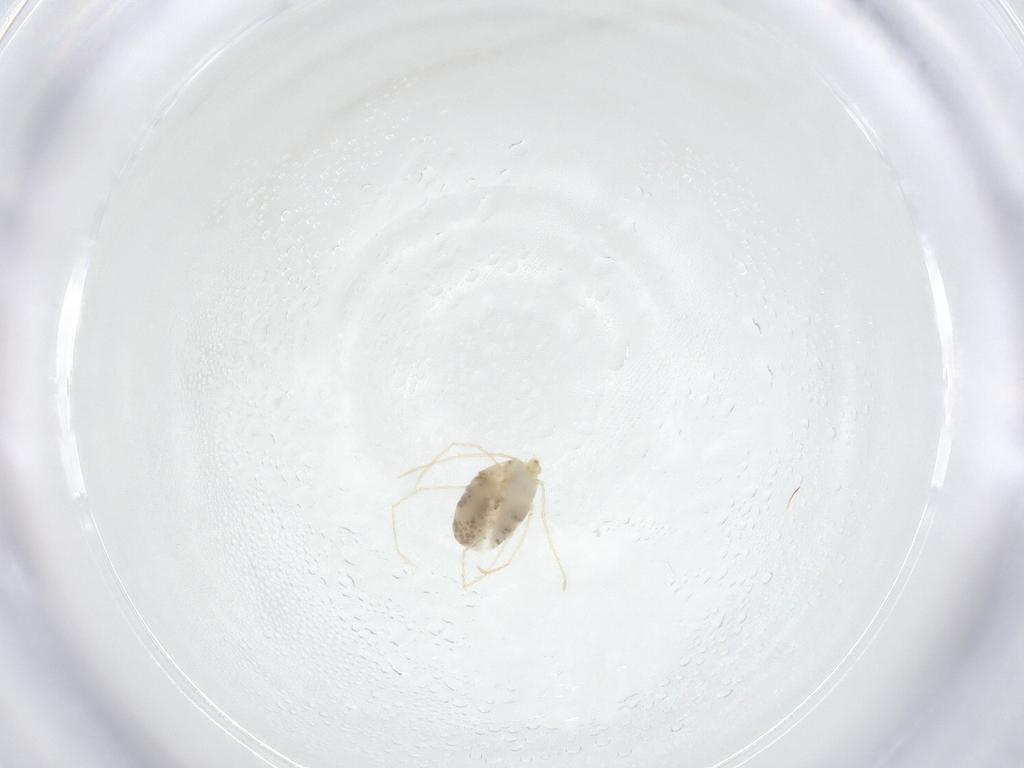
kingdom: Animalia
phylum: Arthropoda
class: Arachnida
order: Trombidiformes
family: Erythraeidae
